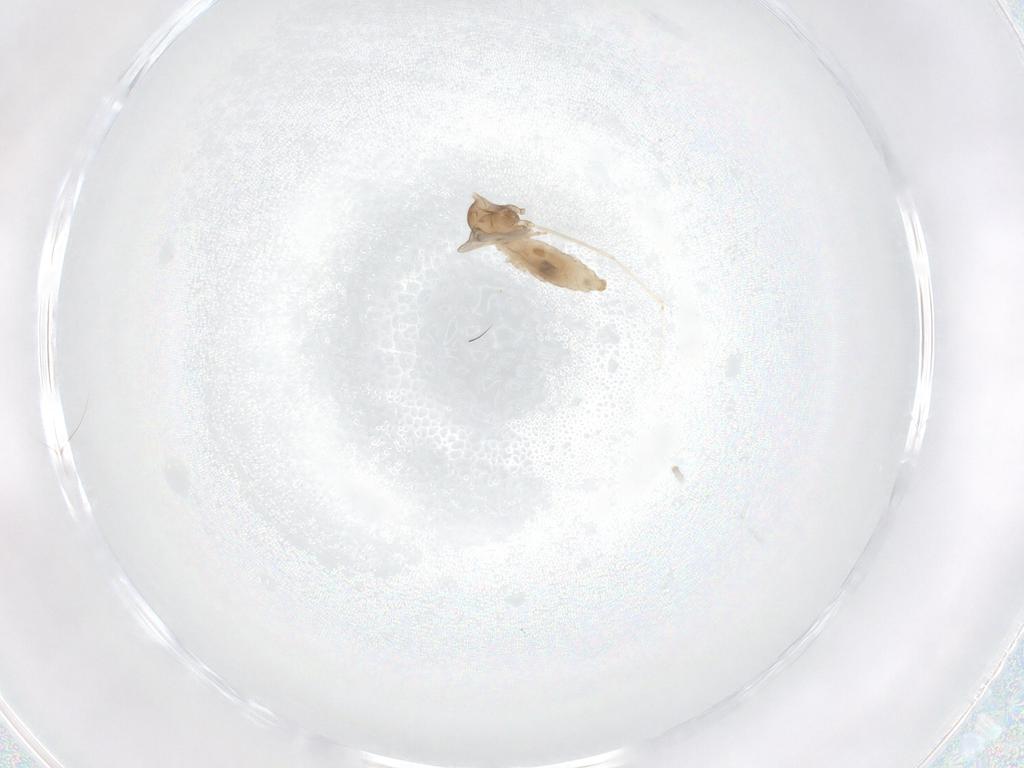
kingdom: Animalia
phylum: Arthropoda
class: Insecta
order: Diptera
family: Cecidomyiidae
